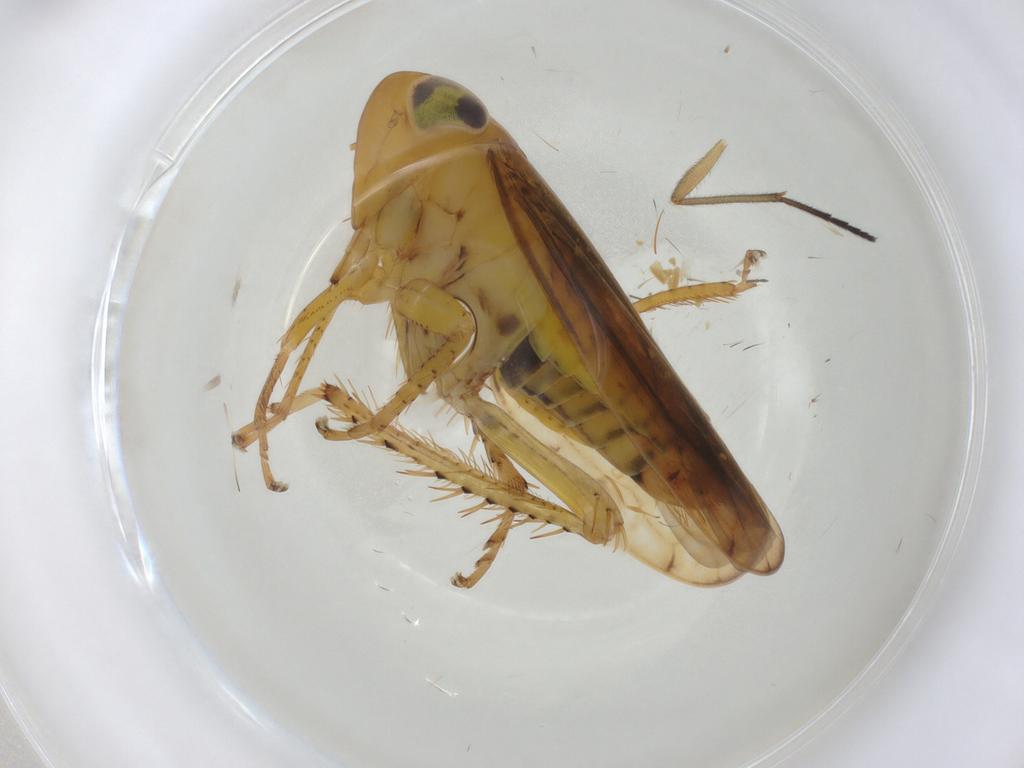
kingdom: Animalia
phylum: Arthropoda
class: Insecta
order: Hemiptera
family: Cicadellidae
